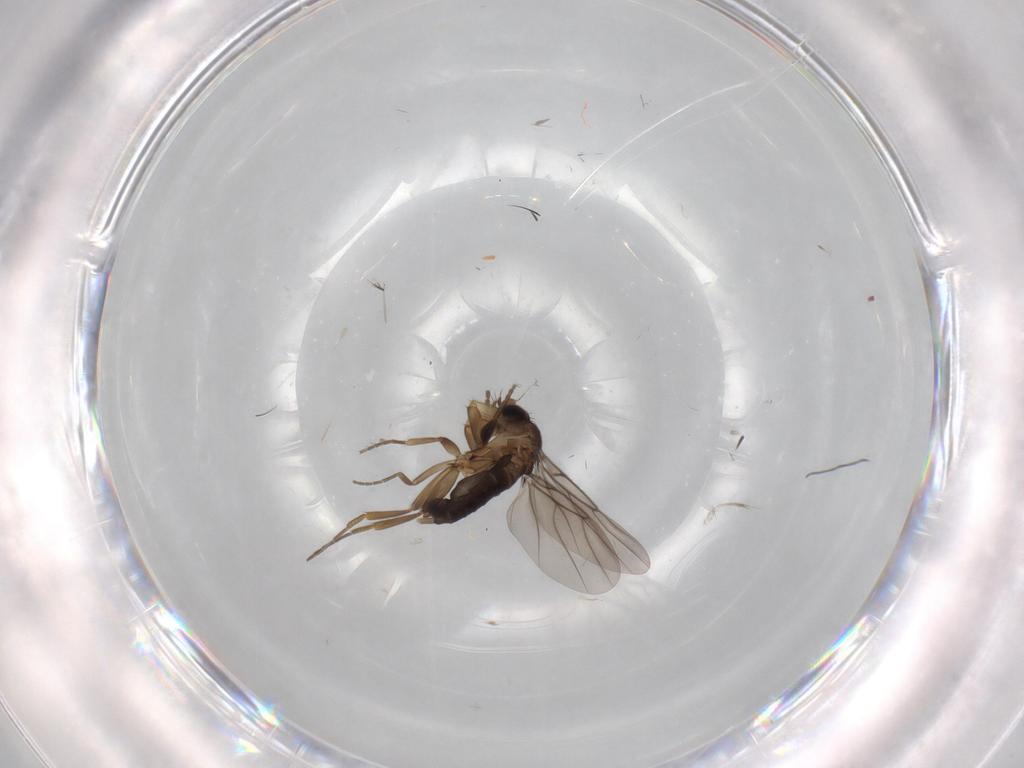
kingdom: Animalia
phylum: Arthropoda
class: Insecta
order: Diptera
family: Phoridae
